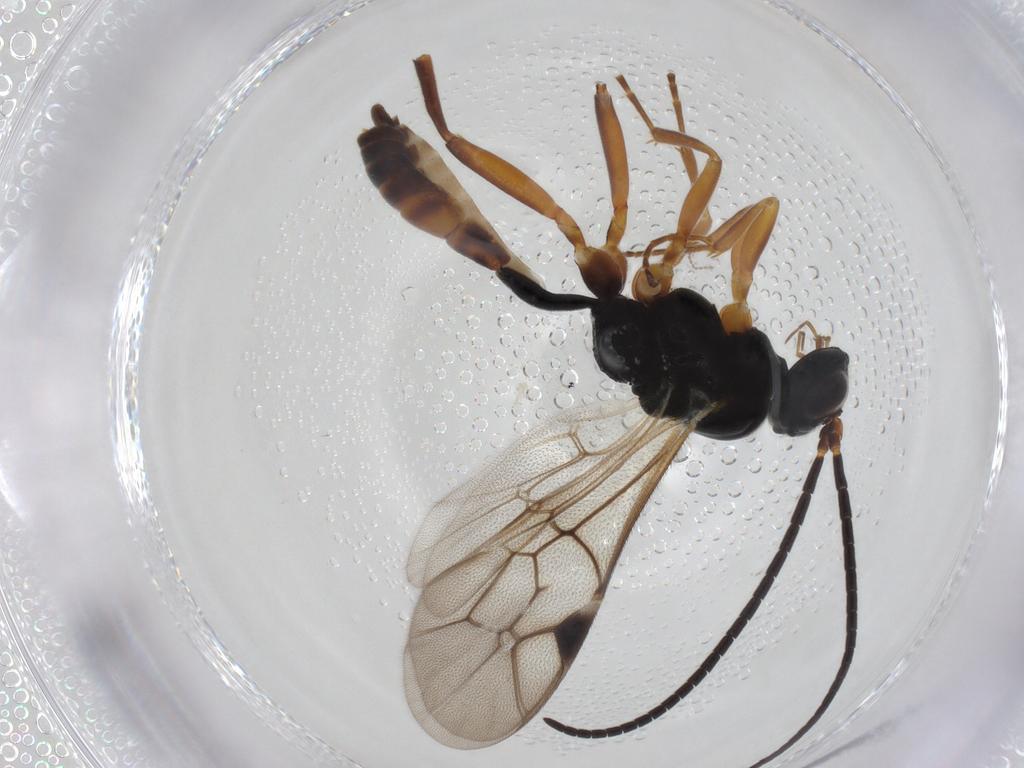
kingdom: Animalia
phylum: Arthropoda
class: Insecta
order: Hymenoptera
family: Ichneumonidae
